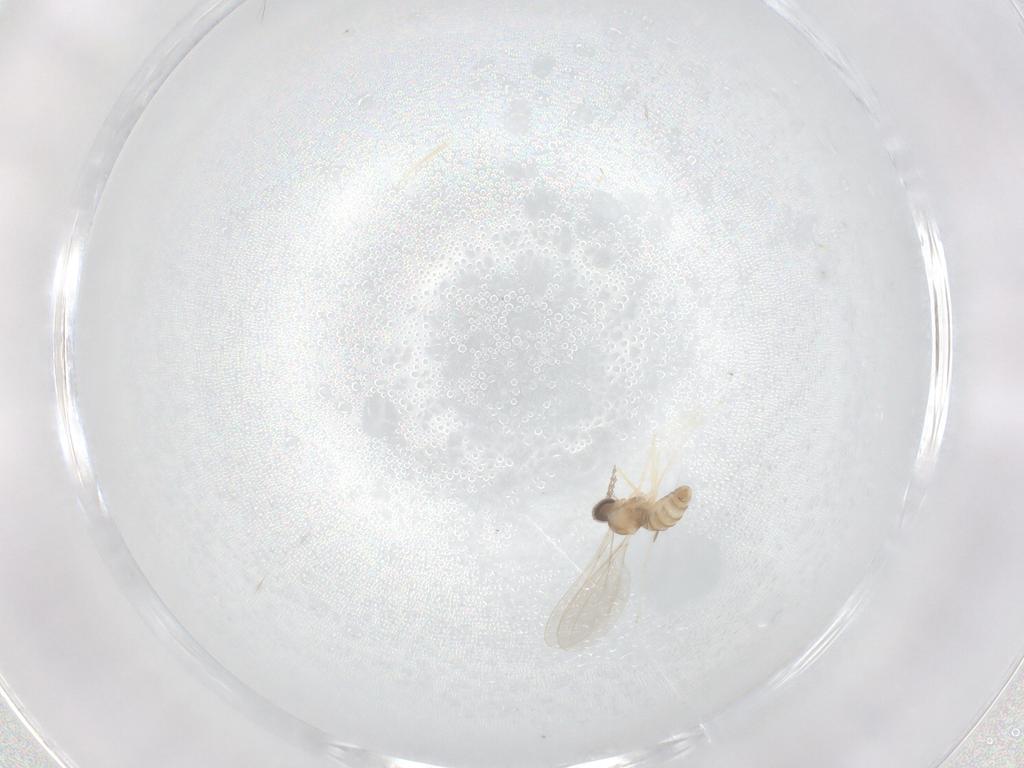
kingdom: Animalia
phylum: Arthropoda
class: Insecta
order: Diptera
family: Cecidomyiidae
